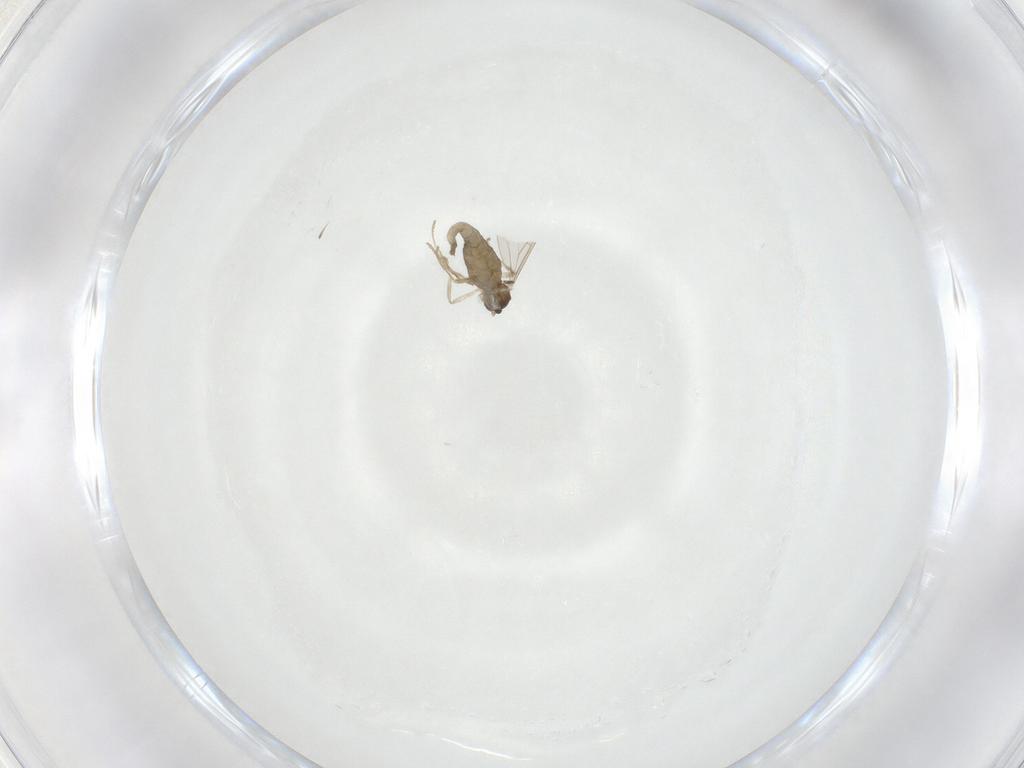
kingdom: Animalia
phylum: Arthropoda
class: Insecta
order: Diptera
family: Cecidomyiidae
